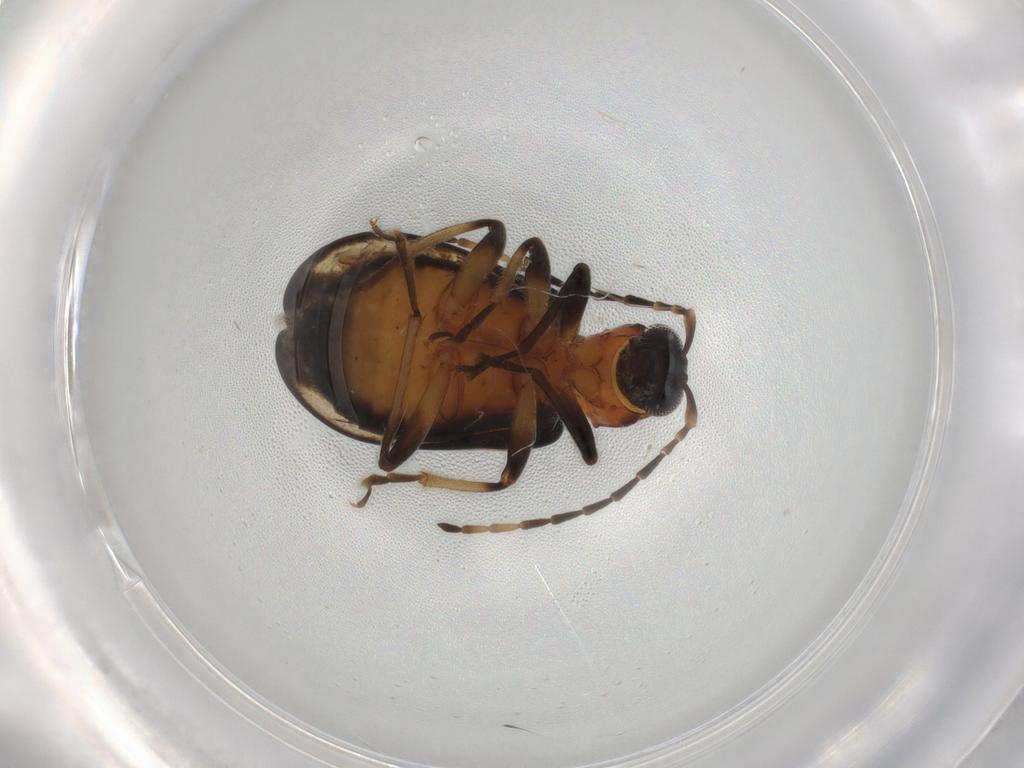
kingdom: Animalia
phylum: Arthropoda
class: Insecta
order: Coleoptera
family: Chrysomelidae
